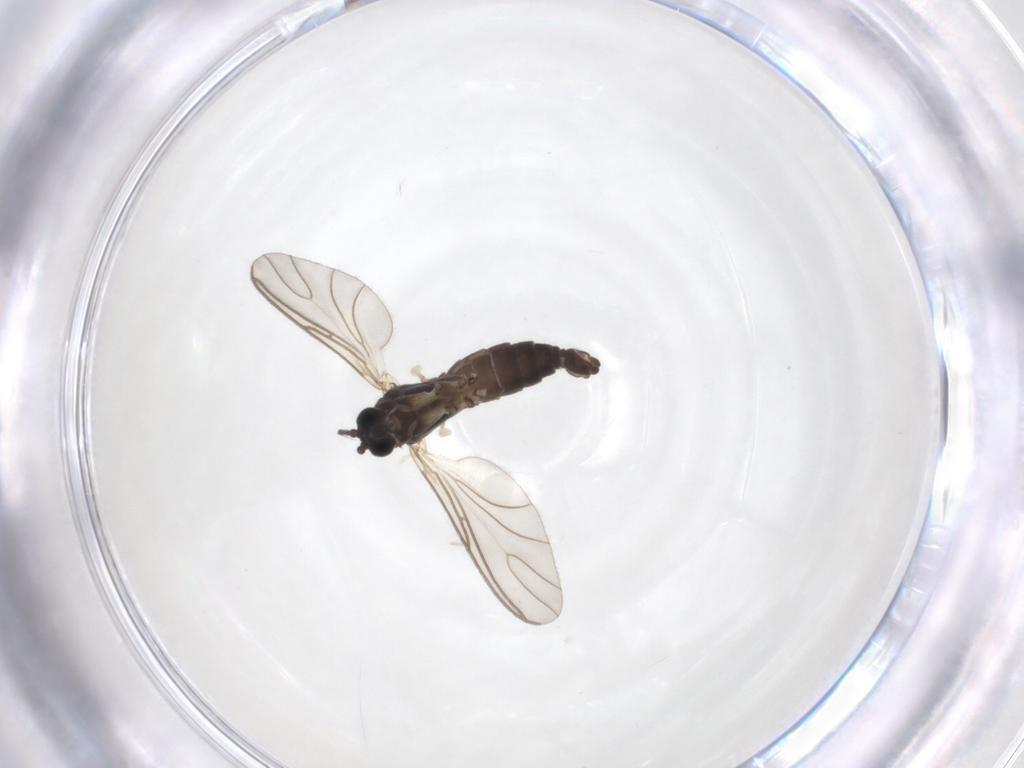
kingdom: Animalia
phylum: Arthropoda
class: Insecta
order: Diptera
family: Sciaridae
